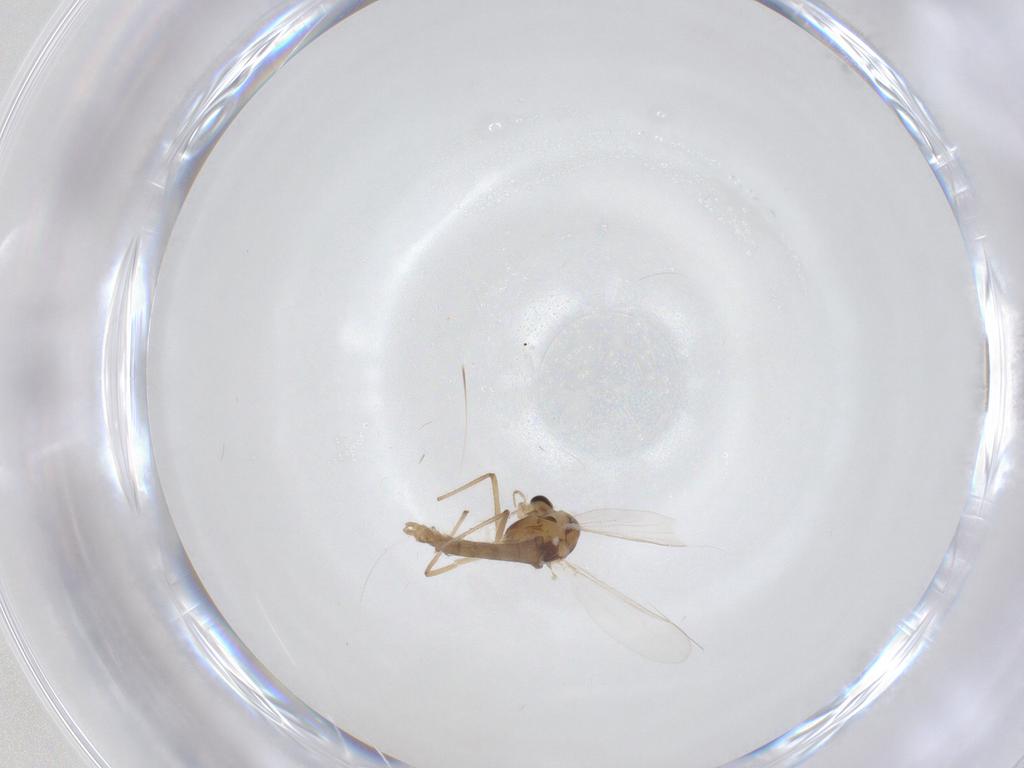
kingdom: Animalia
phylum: Arthropoda
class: Insecta
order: Diptera
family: Chironomidae
